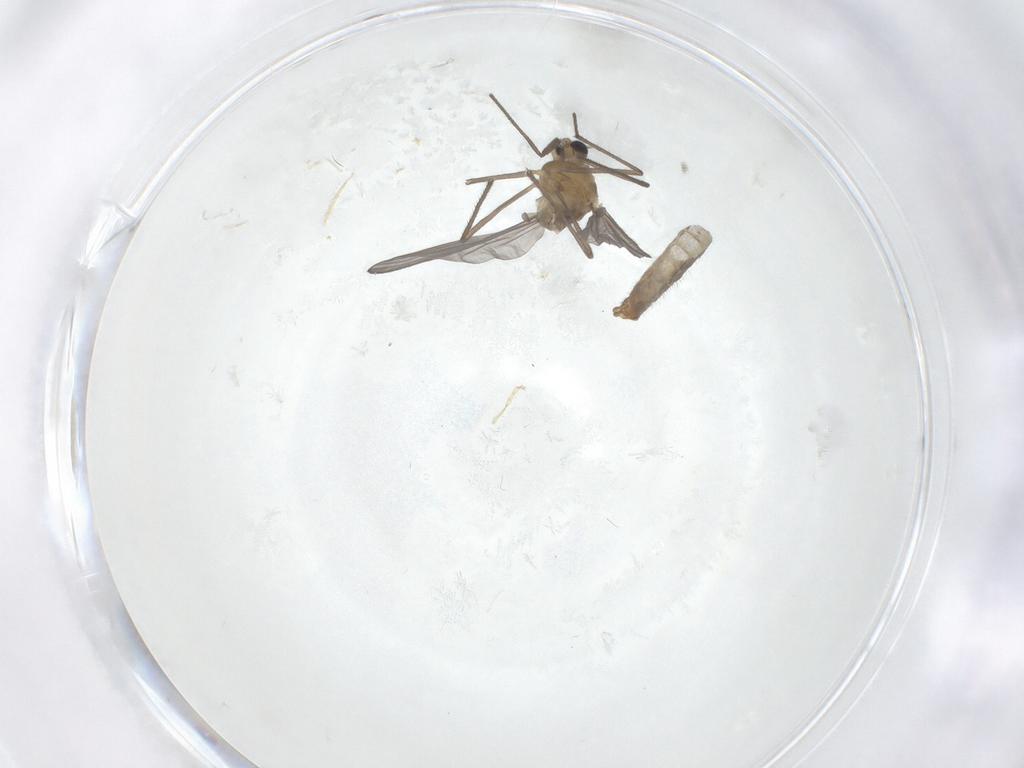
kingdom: Animalia
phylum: Arthropoda
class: Insecta
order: Diptera
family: Chironomidae
